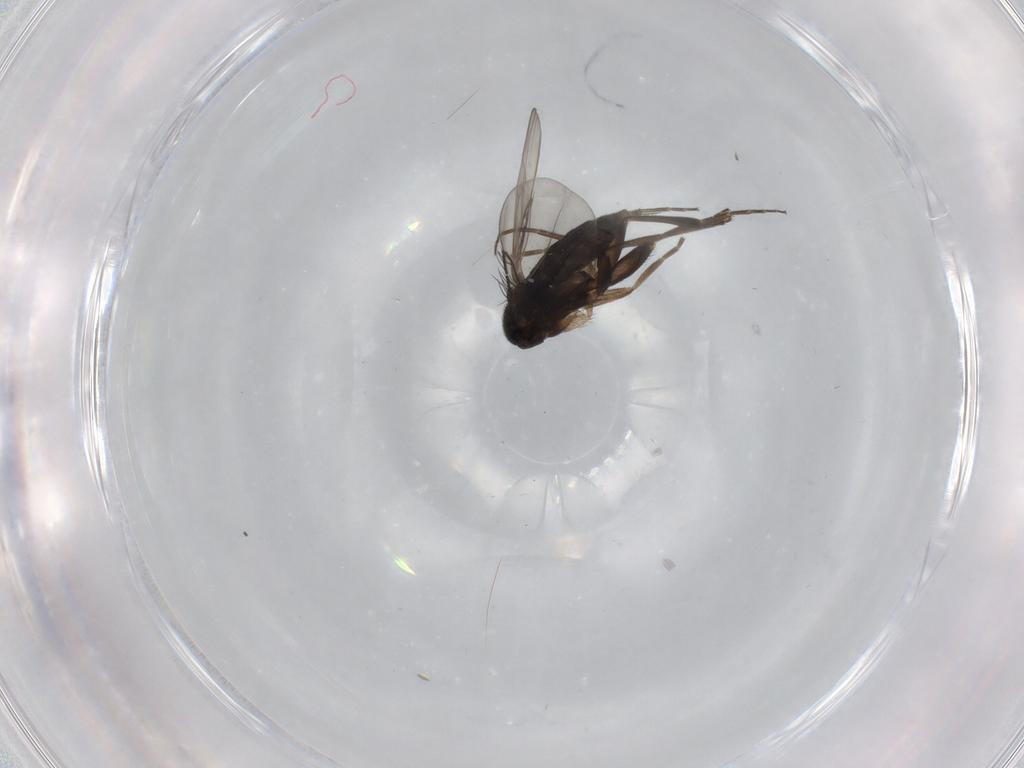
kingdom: Animalia
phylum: Arthropoda
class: Insecta
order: Diptera
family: Phoridae
